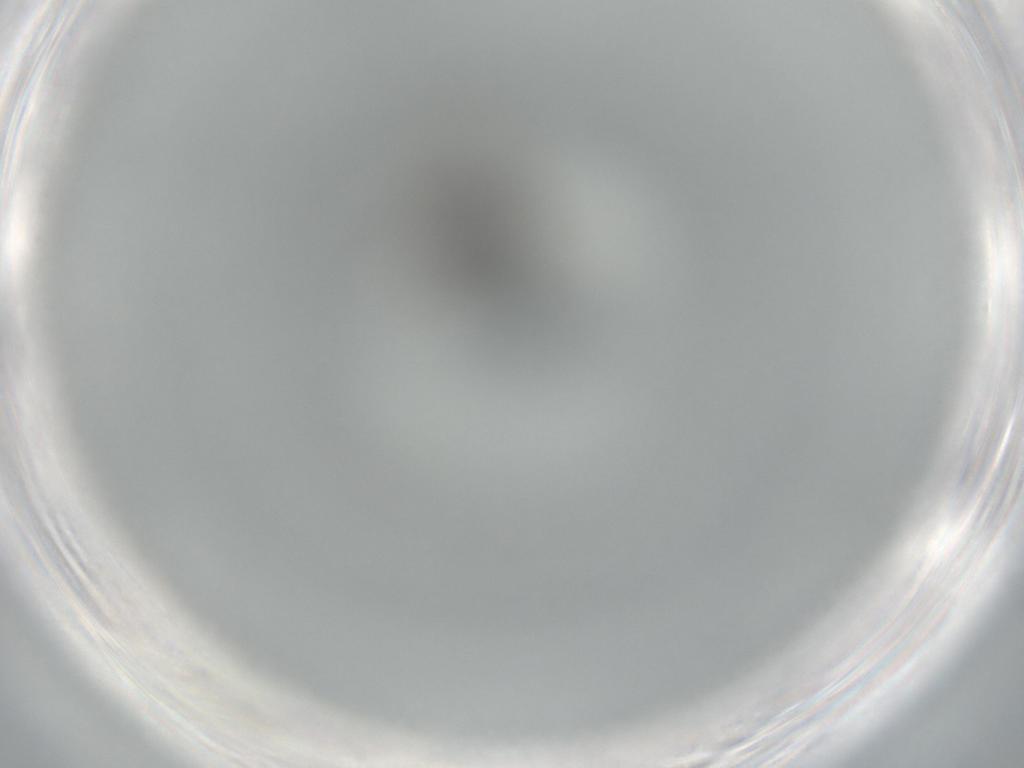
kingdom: Animalia
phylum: Arthropoda
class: Insecta
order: Diptera
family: Phoridae
